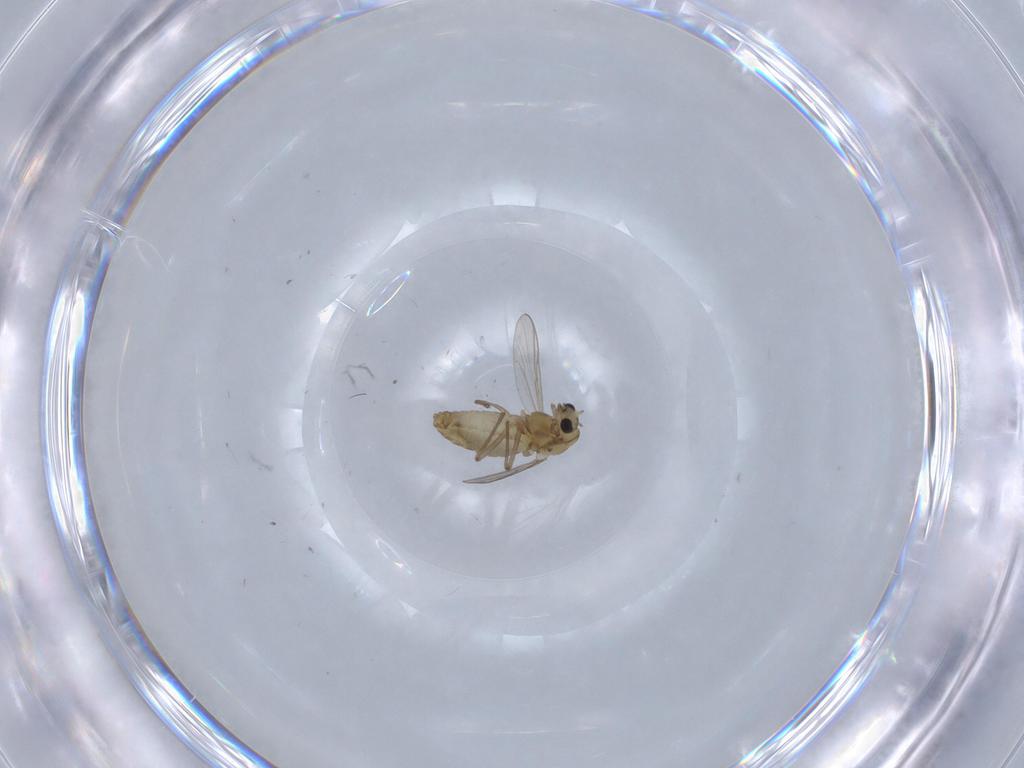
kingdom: Animalia
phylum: Arthropoda
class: Insecta
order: Diptera
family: Chironomidae
